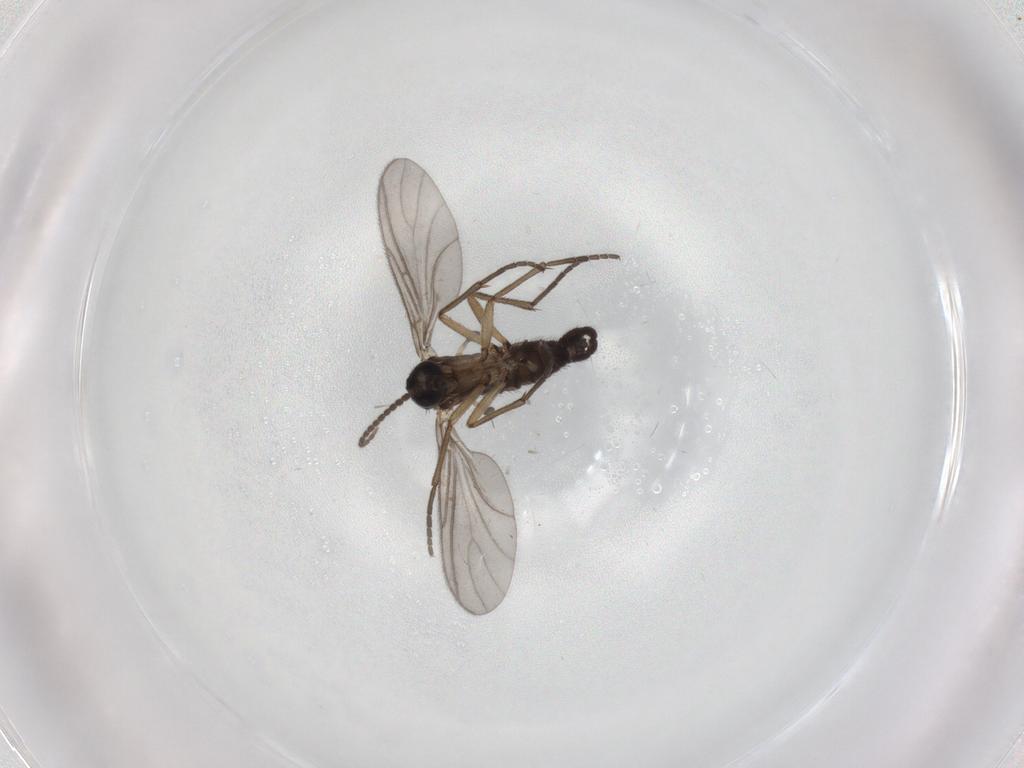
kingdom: Animalia
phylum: Arthropoda
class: Insecta
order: Diptera
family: Sciaridae
